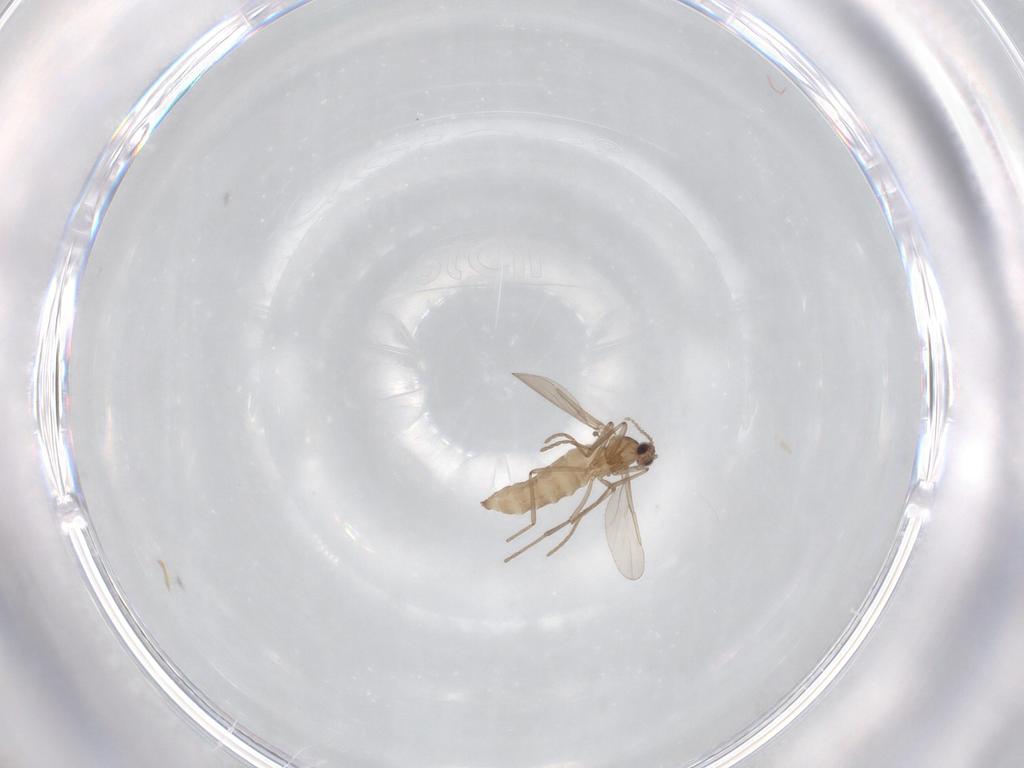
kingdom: Animalia
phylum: Arthropoda
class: Insecta
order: Diptera
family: Cecidomyiidae
